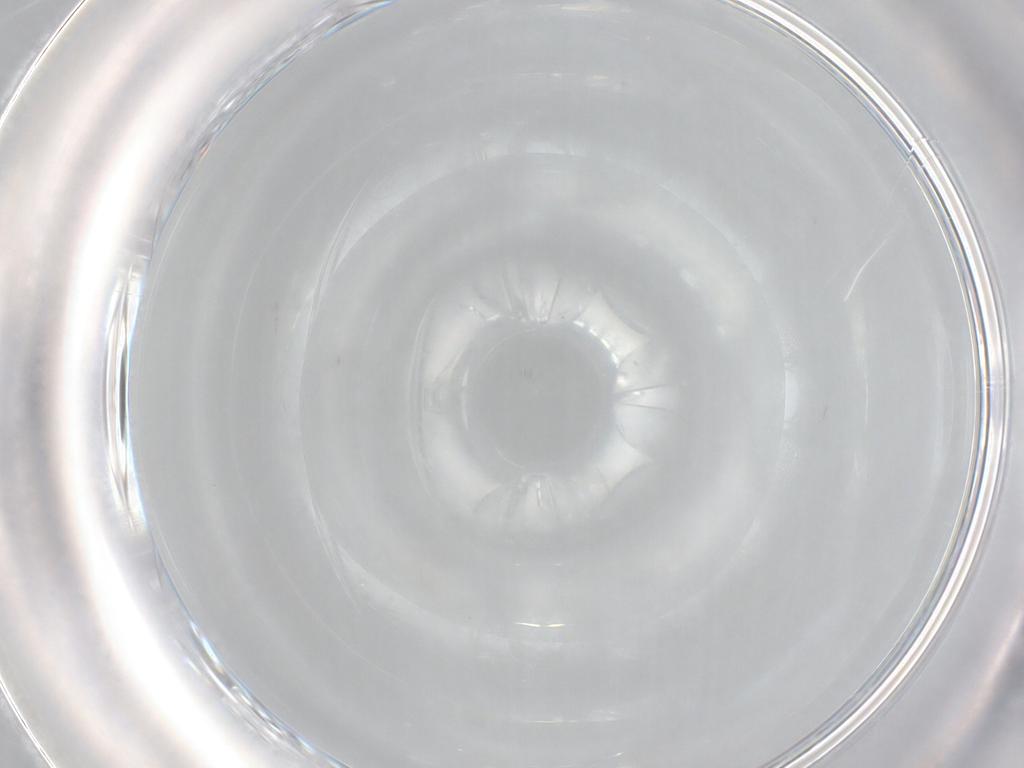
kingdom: Animalia
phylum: Arthropoda
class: Insecta
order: Diptera
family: Milichiidae
